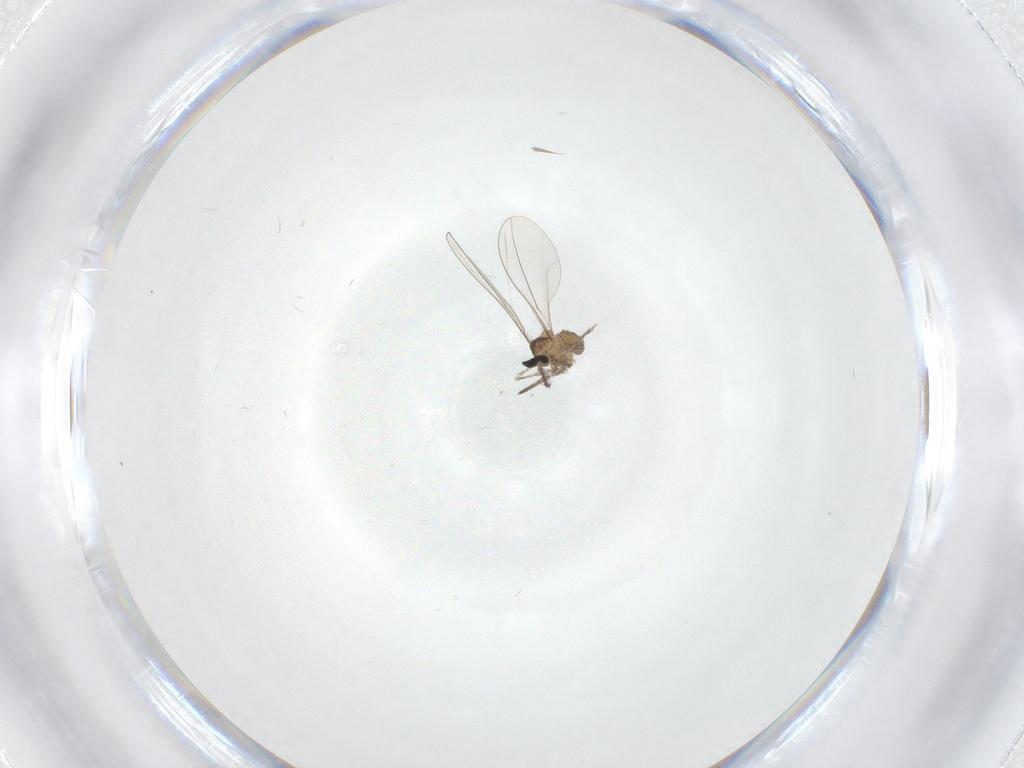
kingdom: Animalia
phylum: Arthropoda
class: Insecta
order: Diptera
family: Cecidomyiidae
